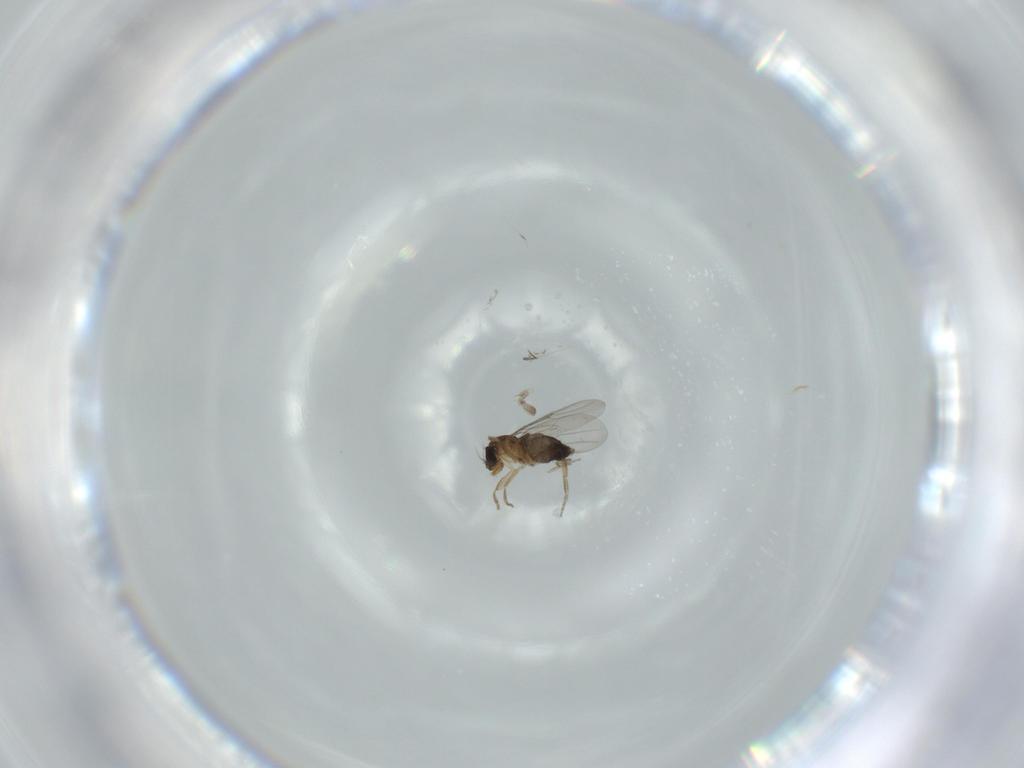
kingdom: Animalia
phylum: Arthropoda
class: Insecta
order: Diptera
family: Phoridae
